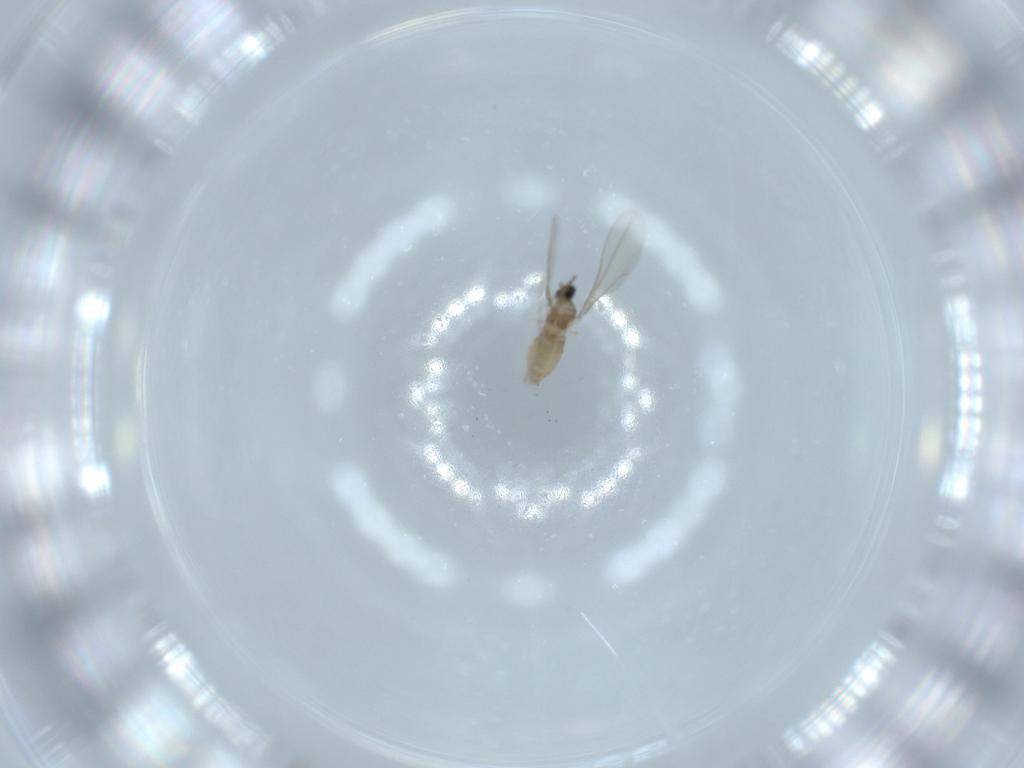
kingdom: Animalia
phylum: Arthropoda
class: Insecta
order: Diptera
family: Cecidomyiidae
